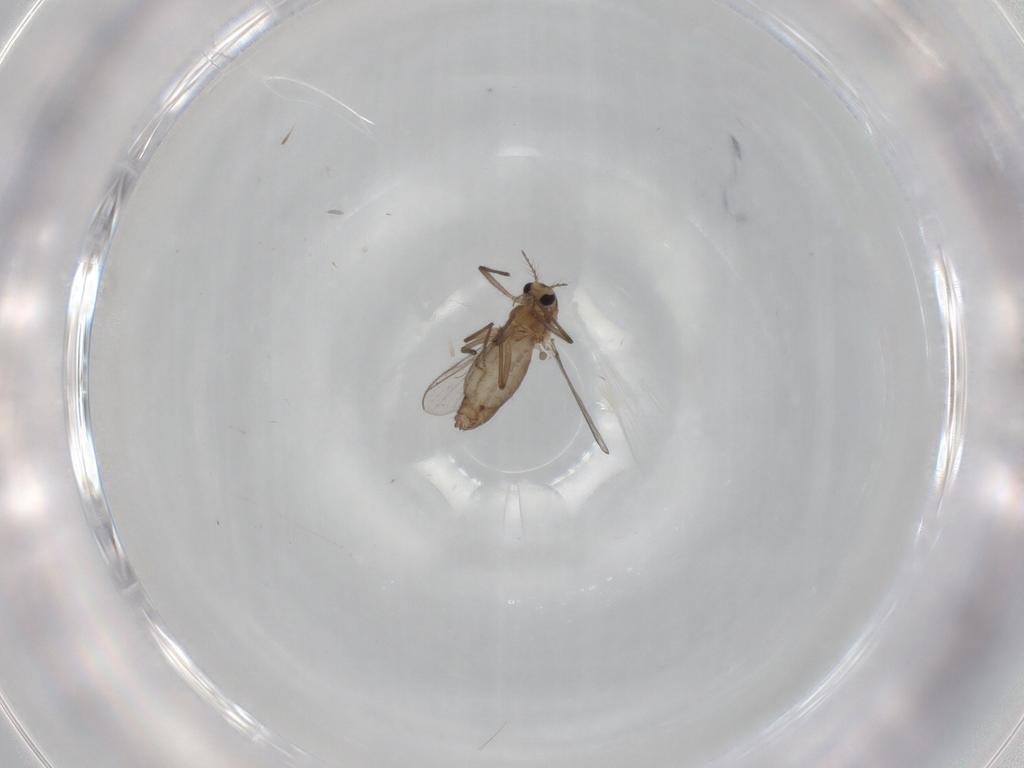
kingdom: Animalia
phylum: Arthropoda
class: Insecta
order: Diptera
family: Chironomidae
